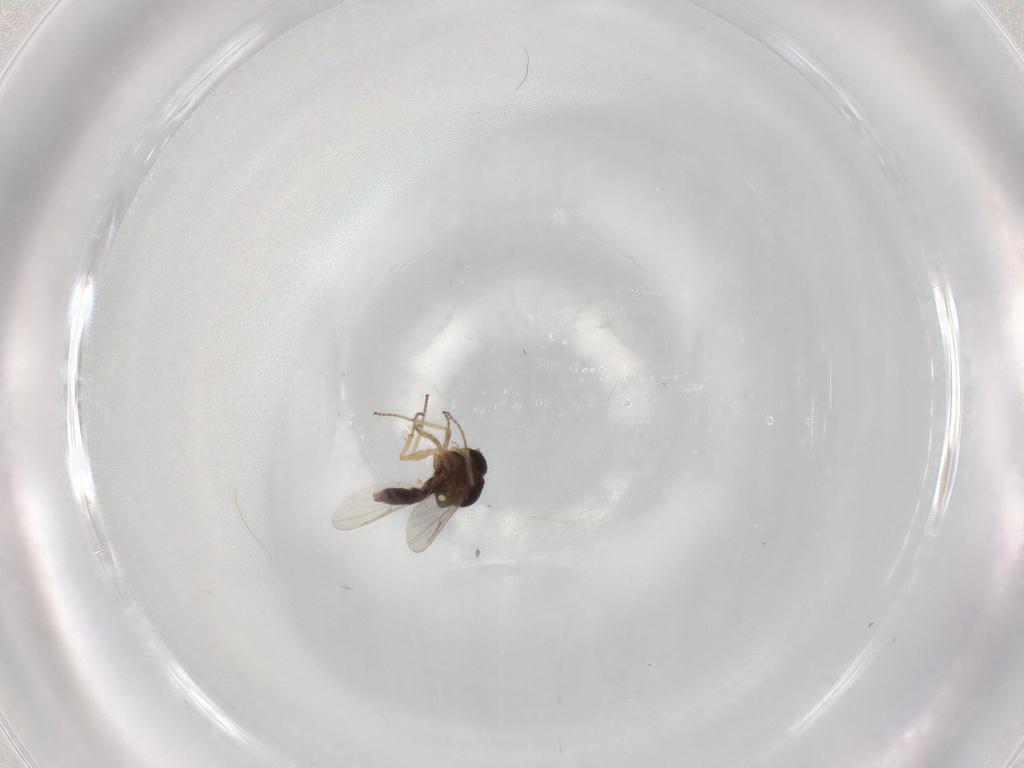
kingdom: Animalia
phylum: Arthropoda
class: Insecta
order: Diptera
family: Ceratopogonidae
